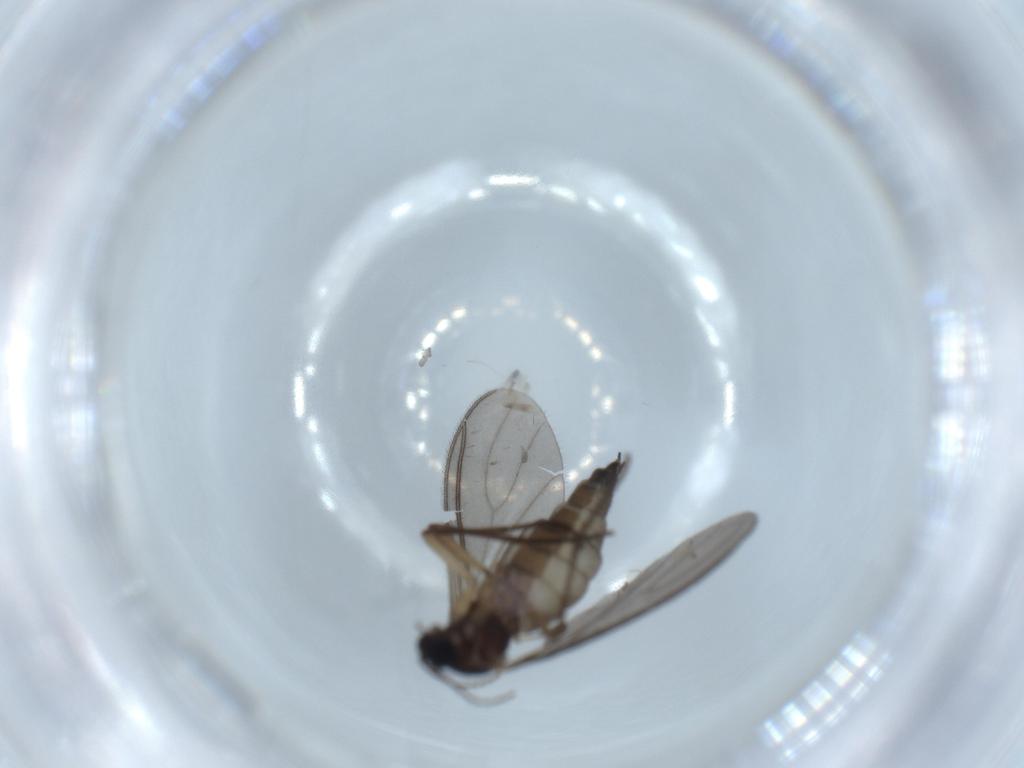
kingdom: Animalia
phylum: Arthropoda
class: Insecta
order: Diptera
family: Sciaridae
